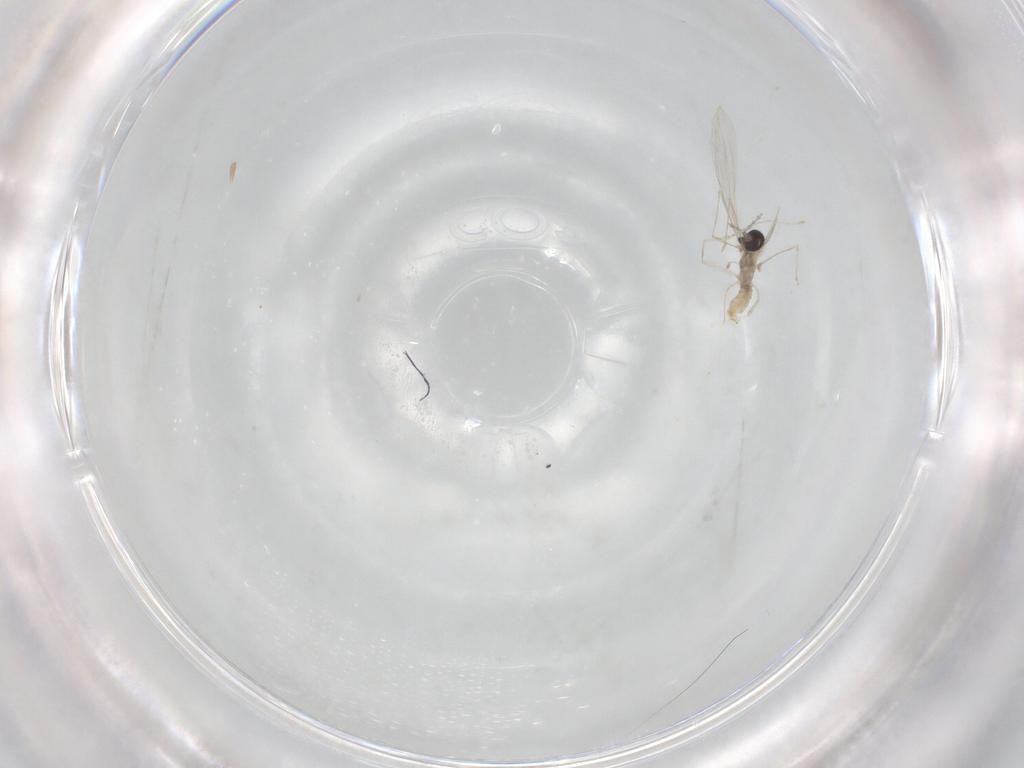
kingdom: Animalia
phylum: Arthropoda
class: Insecta
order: Diptera
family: Cecidomyiidae
